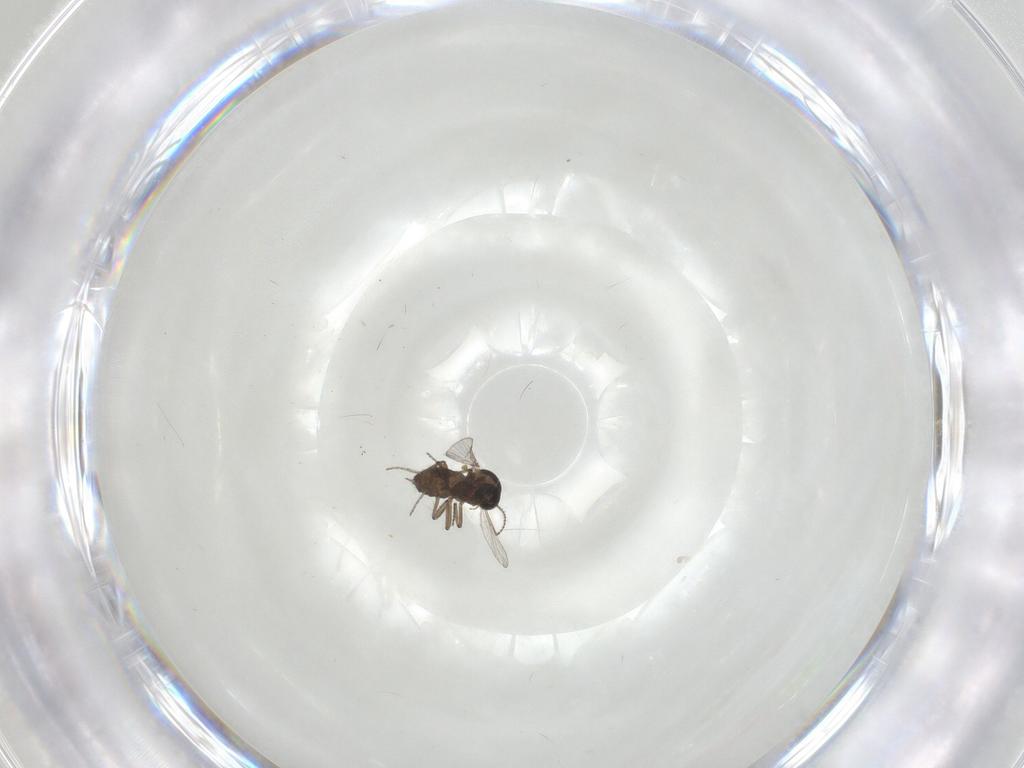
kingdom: Animalia
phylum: Arthropoda
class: Insecta
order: Diptera
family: Ceratopogonidae
